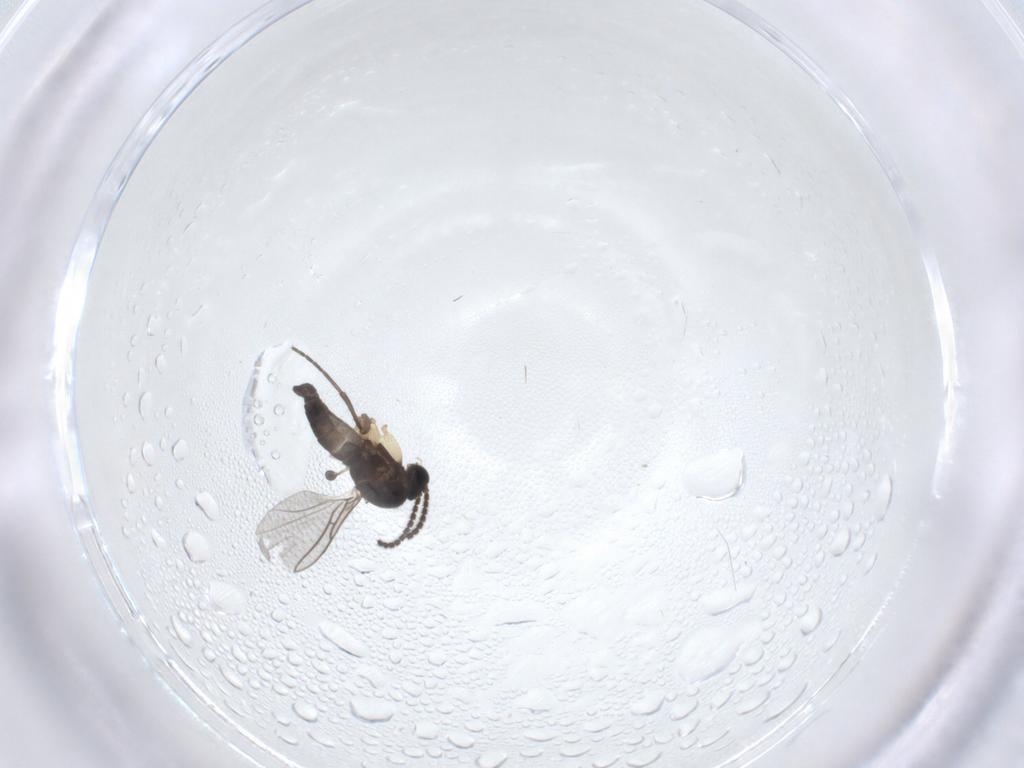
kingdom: Animalia
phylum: Arthropoda
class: Insecta
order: Diptera
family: Sciaridae
